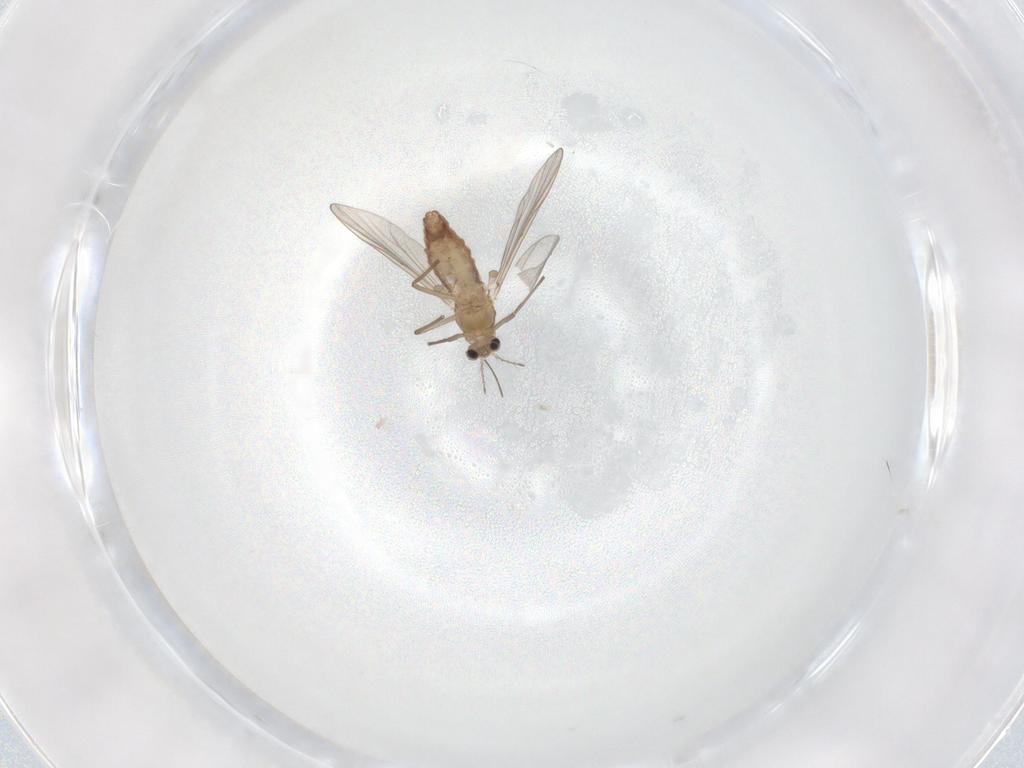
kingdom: Animalia
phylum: Arthropoda
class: Insecta
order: Diptera
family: Chironomidae
